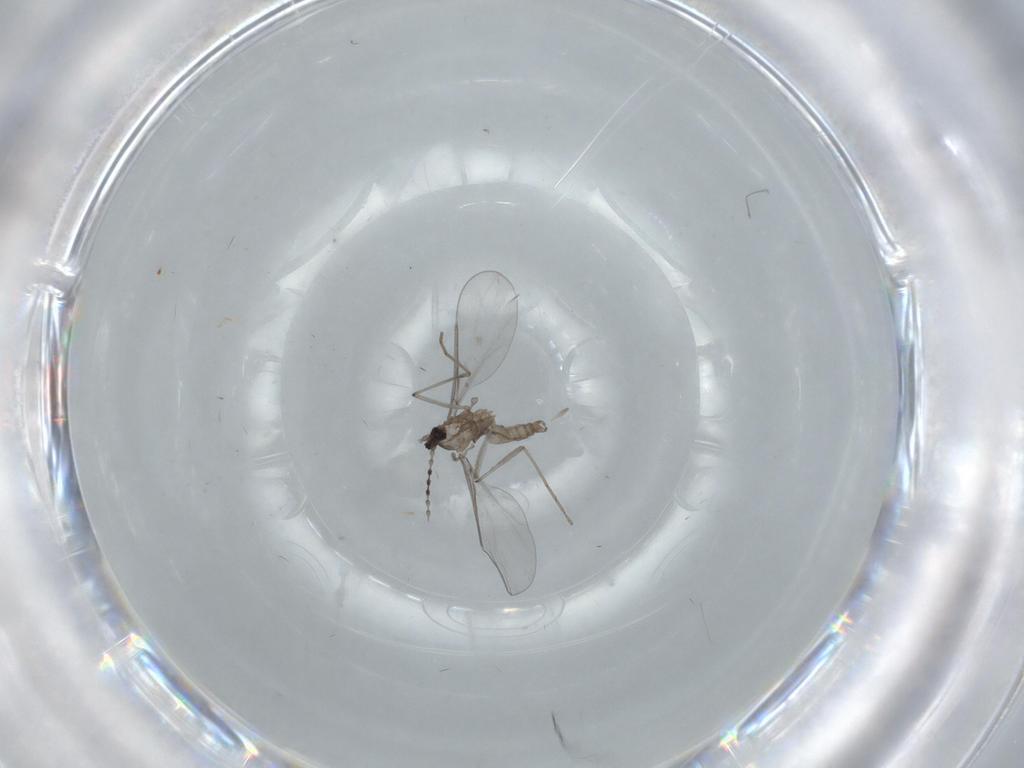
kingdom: Animalia
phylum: Arthropoda
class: Insecta
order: Diptera
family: Ceratopogonidae
